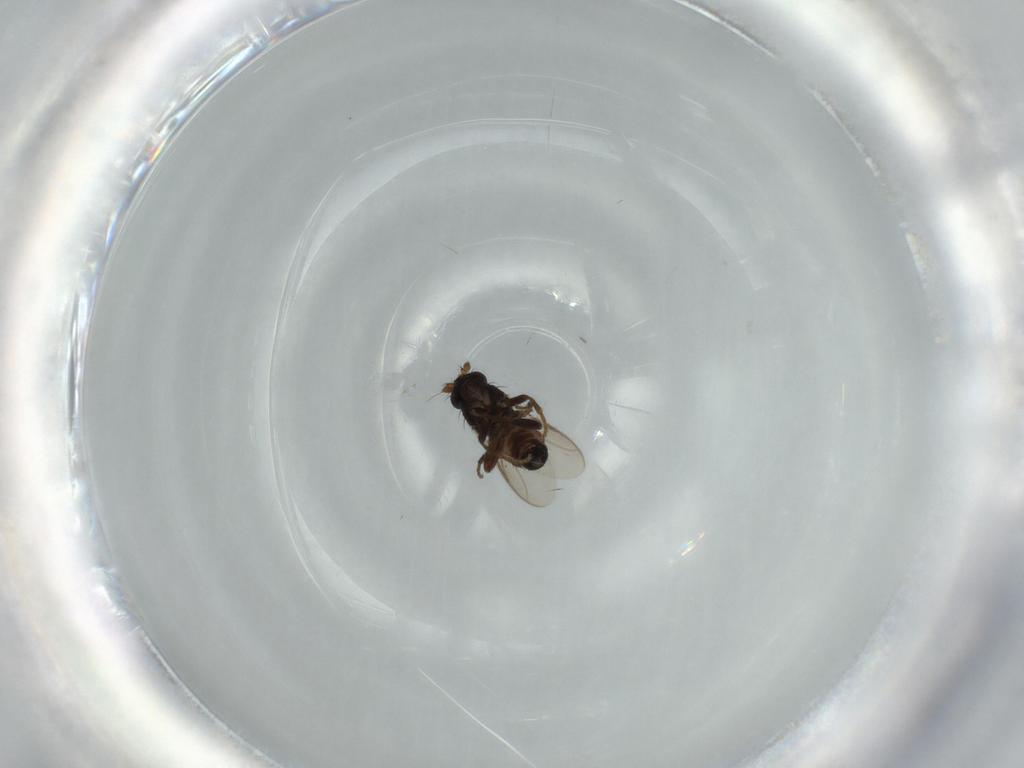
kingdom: Animalia
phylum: Arthropoda
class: Insecta
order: Diptera
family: Sphaeroceridae
